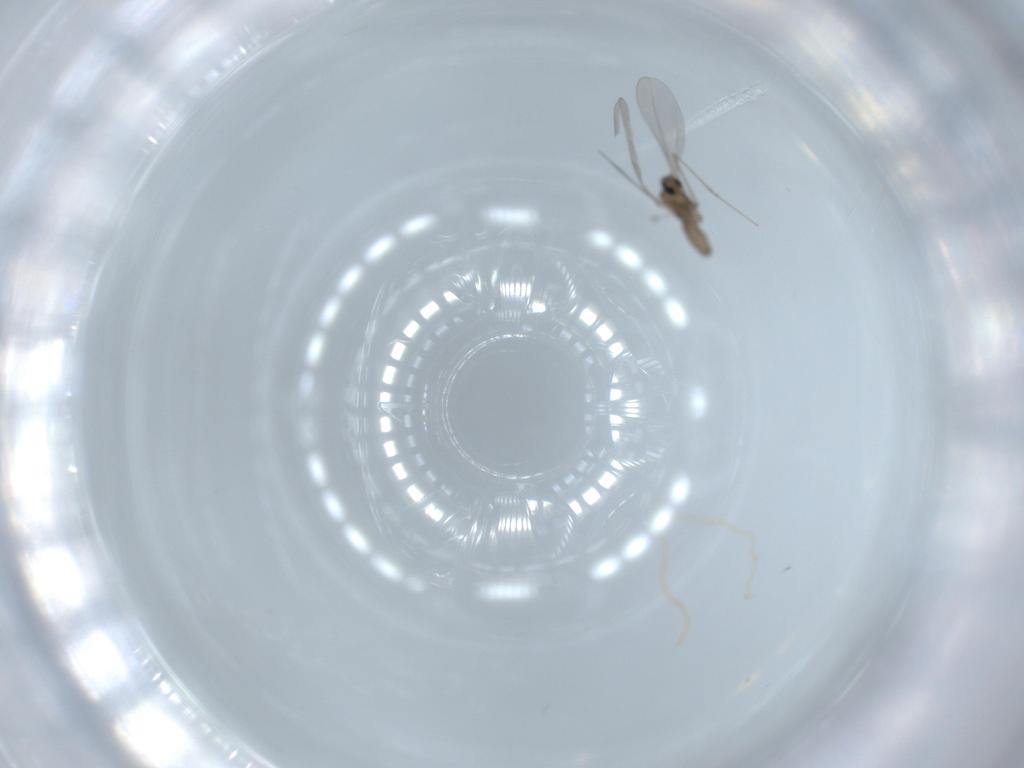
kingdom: Animalia
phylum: Arthropoda
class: Insecta
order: Diptera
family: Cecidomyiidae
